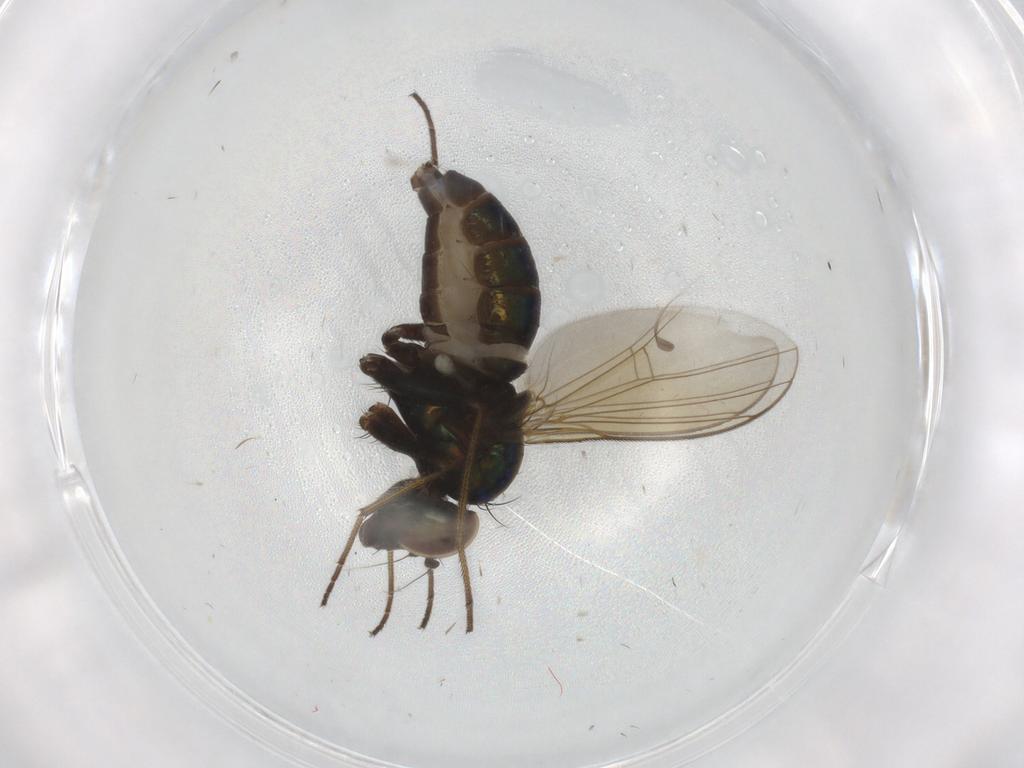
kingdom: Animalia
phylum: Arthropoda
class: Insecta
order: Diptera
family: Dolichopodidae
